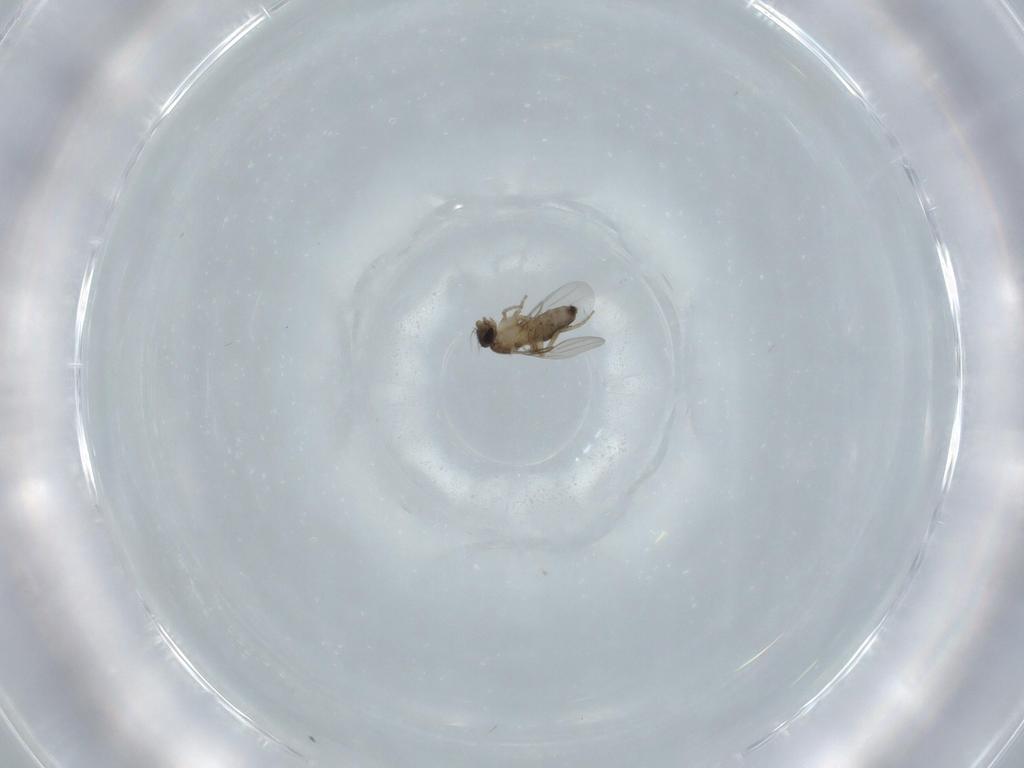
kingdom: Animalia
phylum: Arthropoda
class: Insecta
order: Diptera
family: Phoridae
